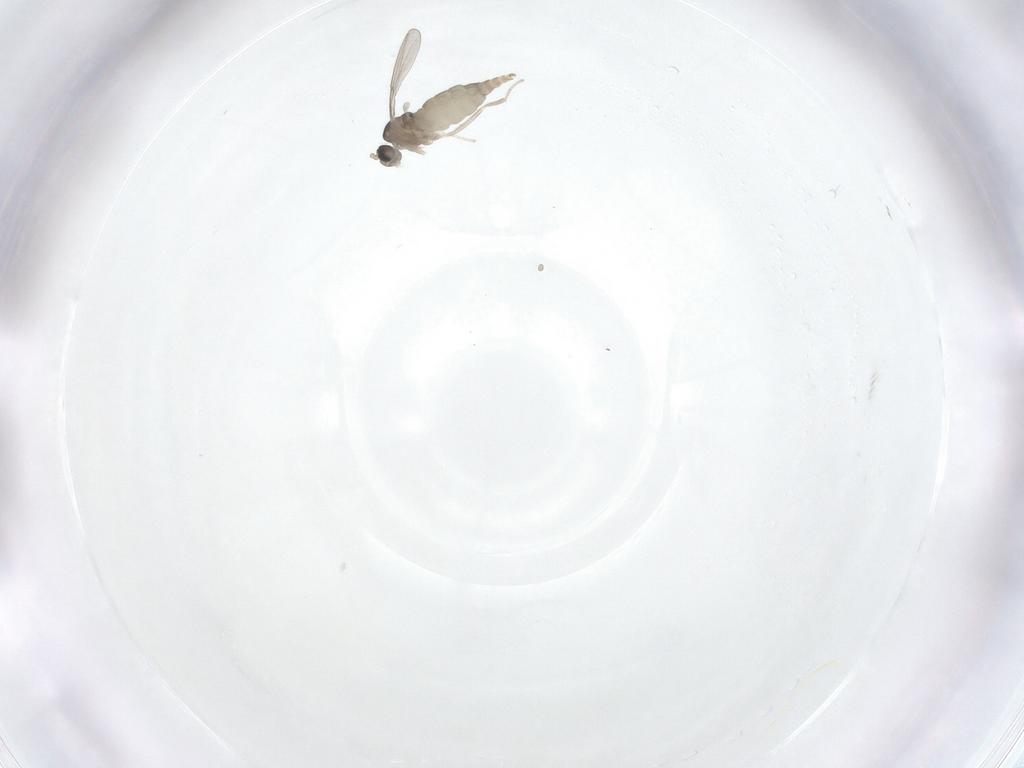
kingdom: Animalia
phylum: Arthropoda
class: Insecta
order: Diptera
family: Cecidomyiidae
